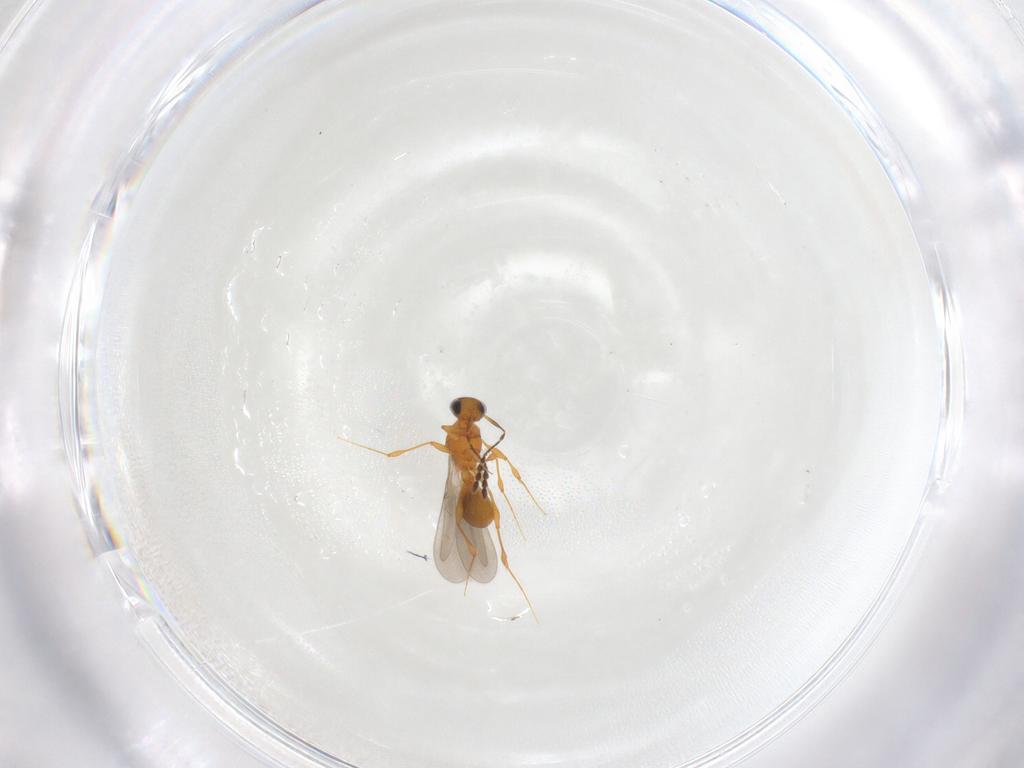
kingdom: Animalia
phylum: Arthropoda
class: Insecta
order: Hymenoptera
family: Platygastridae
